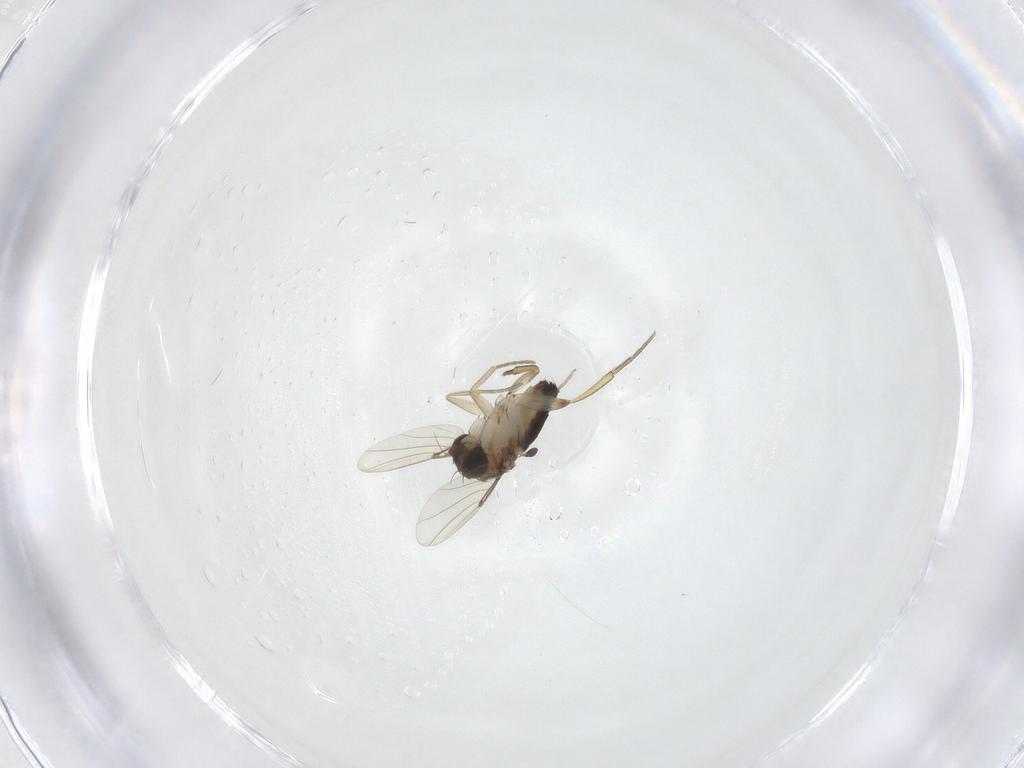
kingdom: Animalia
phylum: Arthropoda
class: Insecta
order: Diptera
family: Phoridae
